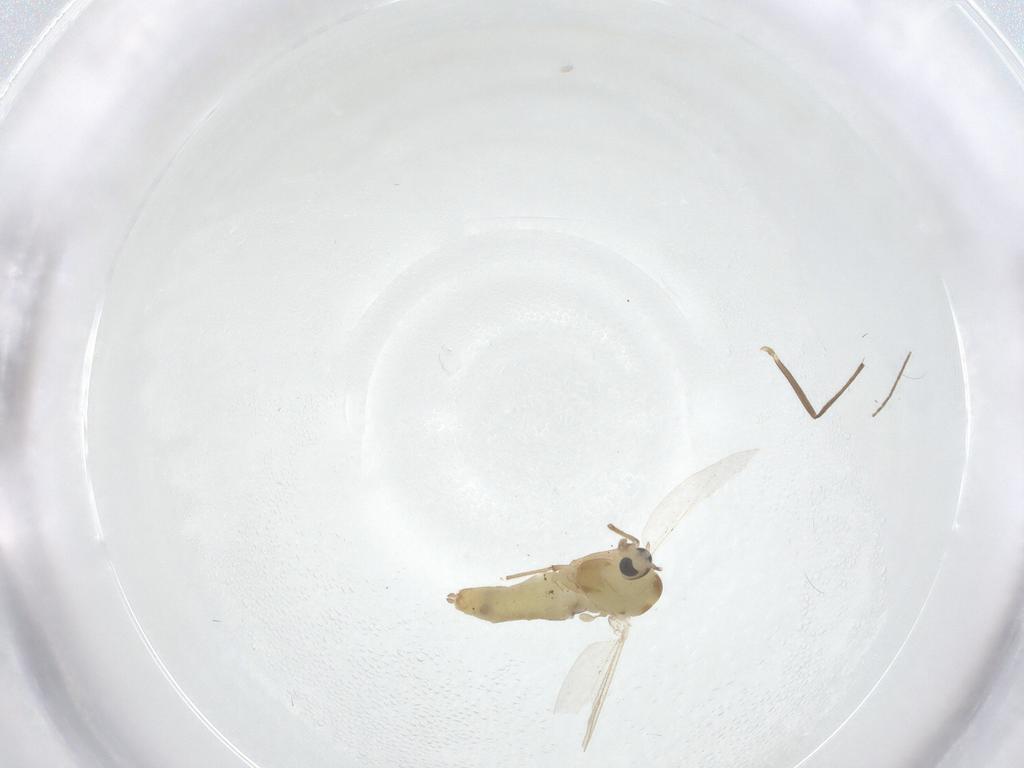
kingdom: Animalia
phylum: Arthropoda
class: Insecta
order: Diptera
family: Chironomidae
